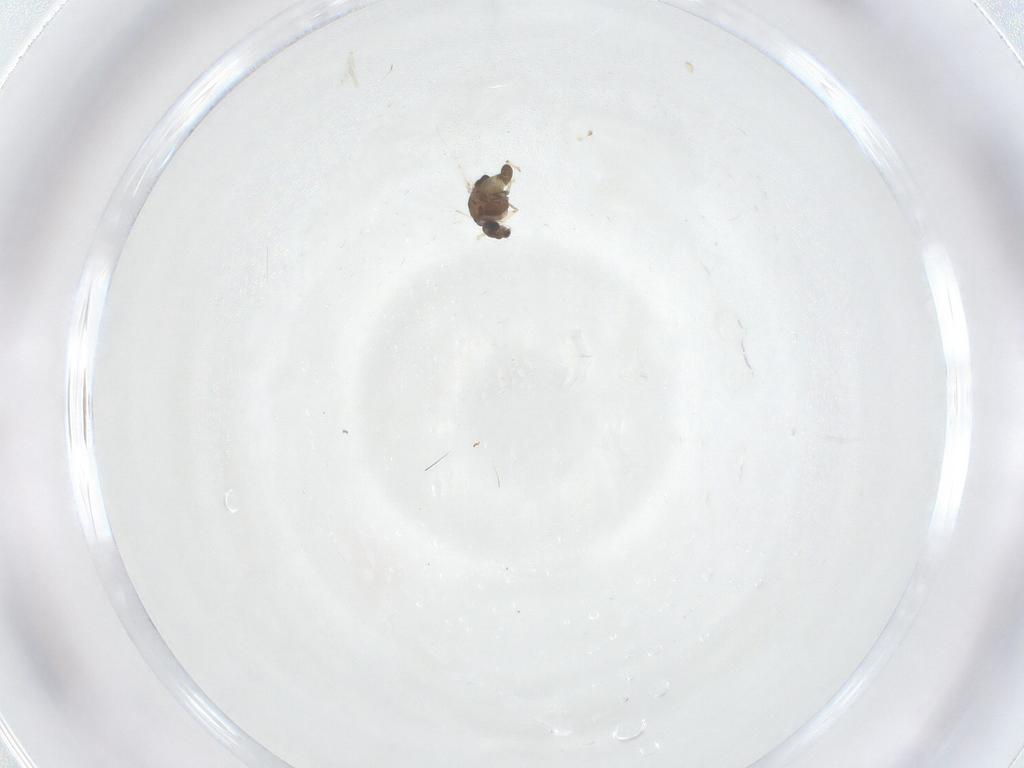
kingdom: Animalia
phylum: Arthropoda
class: Insecta
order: Diptera
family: Chironomidae
